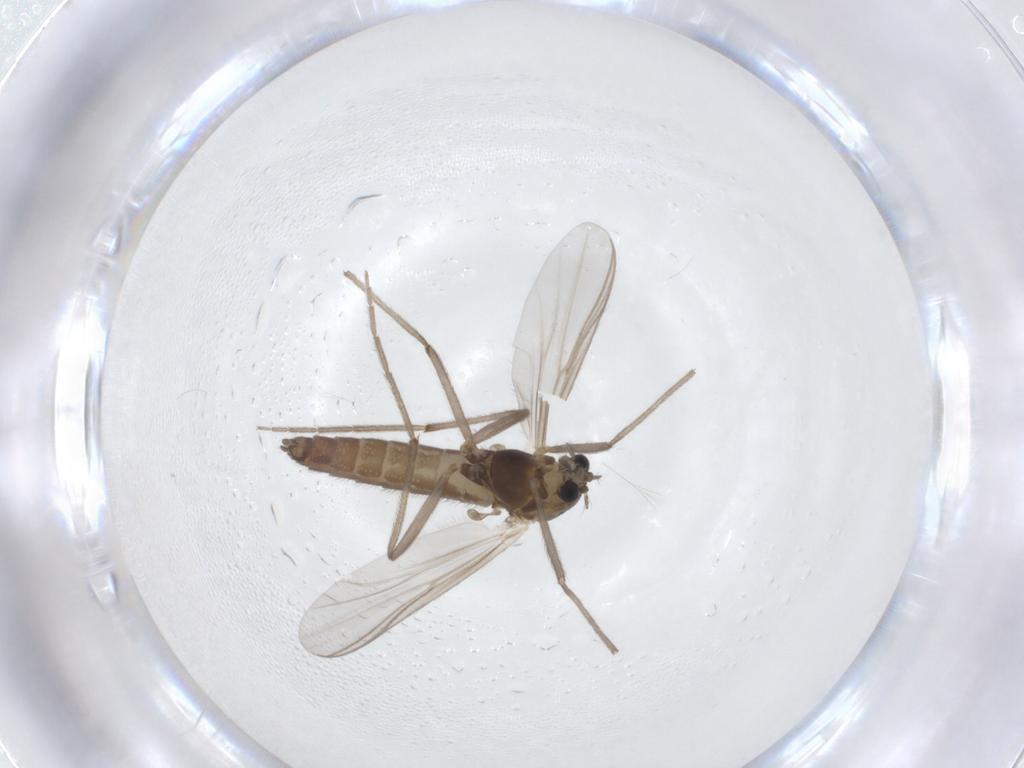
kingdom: Animalia
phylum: Arthropoda
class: Insecta
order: Diptera
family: Chironomidae
